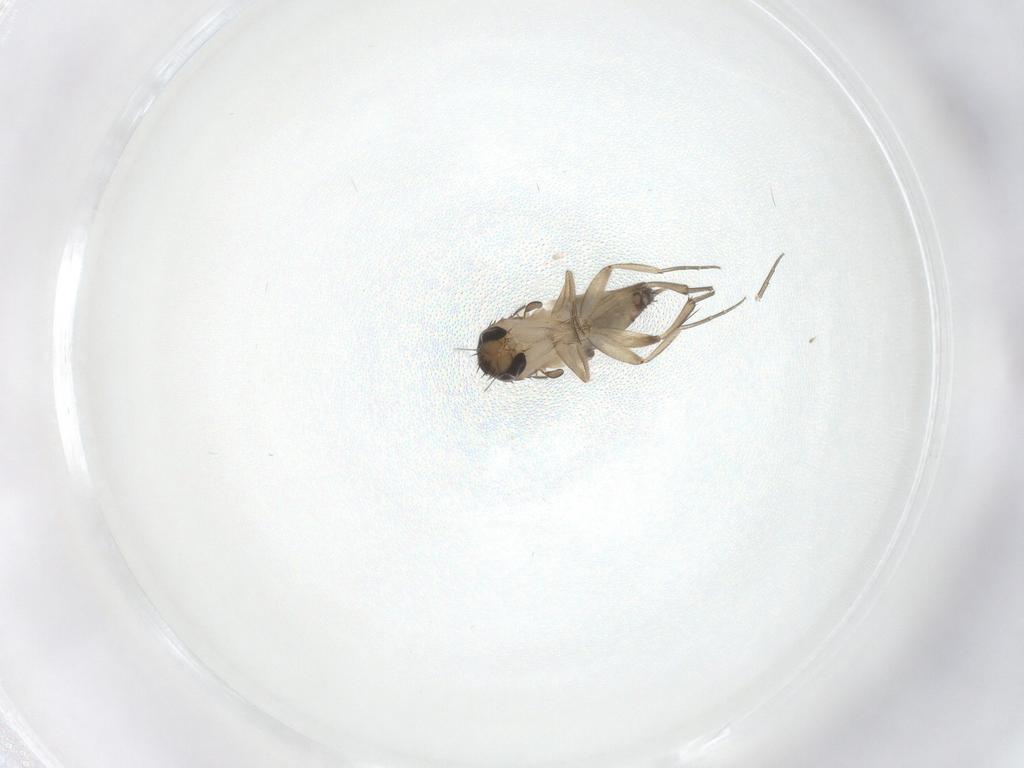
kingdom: Animalia
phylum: Arthropoda
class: Insecta
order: Diptera
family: Phoridae
